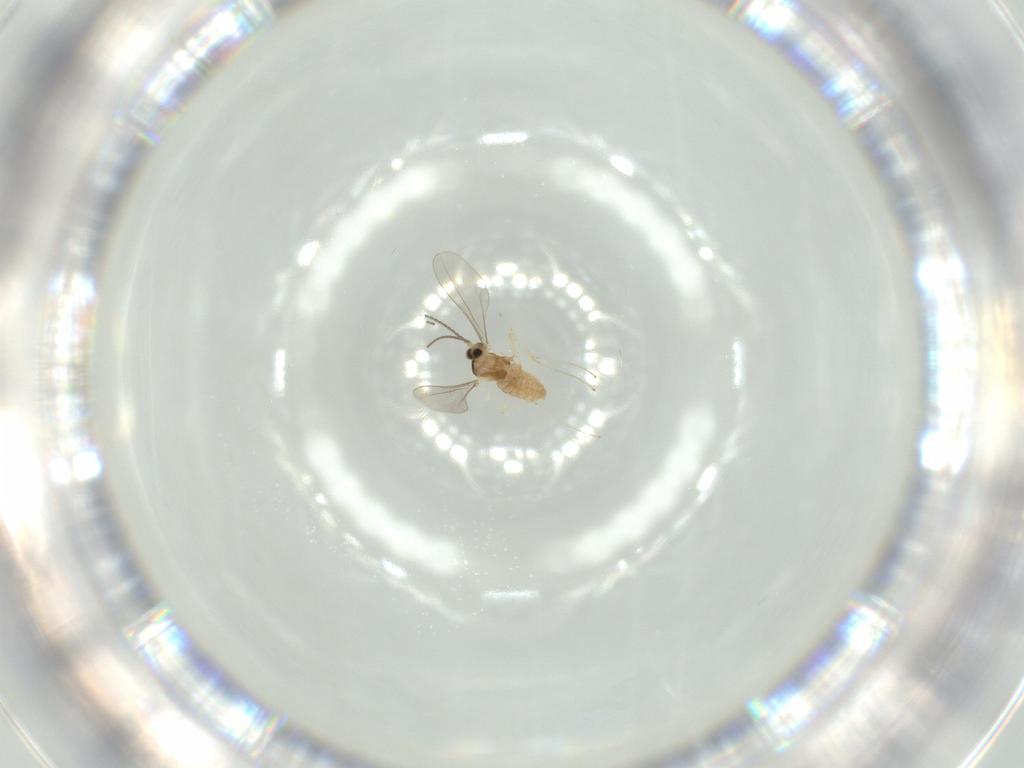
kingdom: Animalia
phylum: Arthropoda
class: Insecta
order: Diptera
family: Cecidomyiidae
